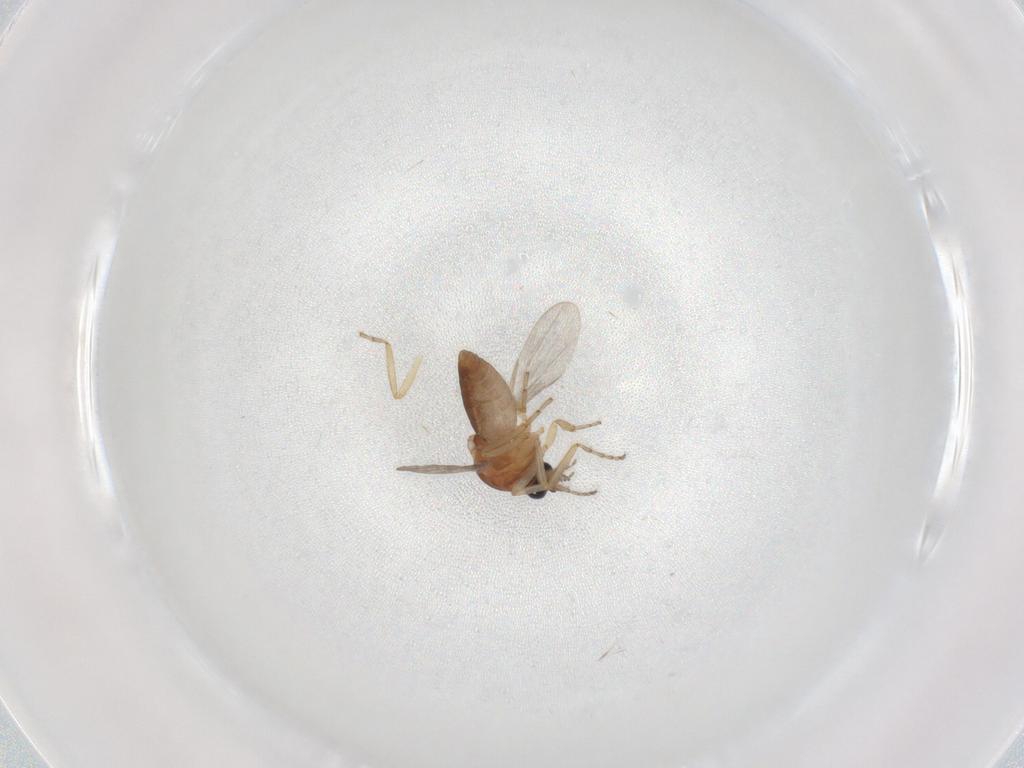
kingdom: Animalia
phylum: Arthropoda
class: Insecta
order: Diptera
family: Ceratopogonidae
